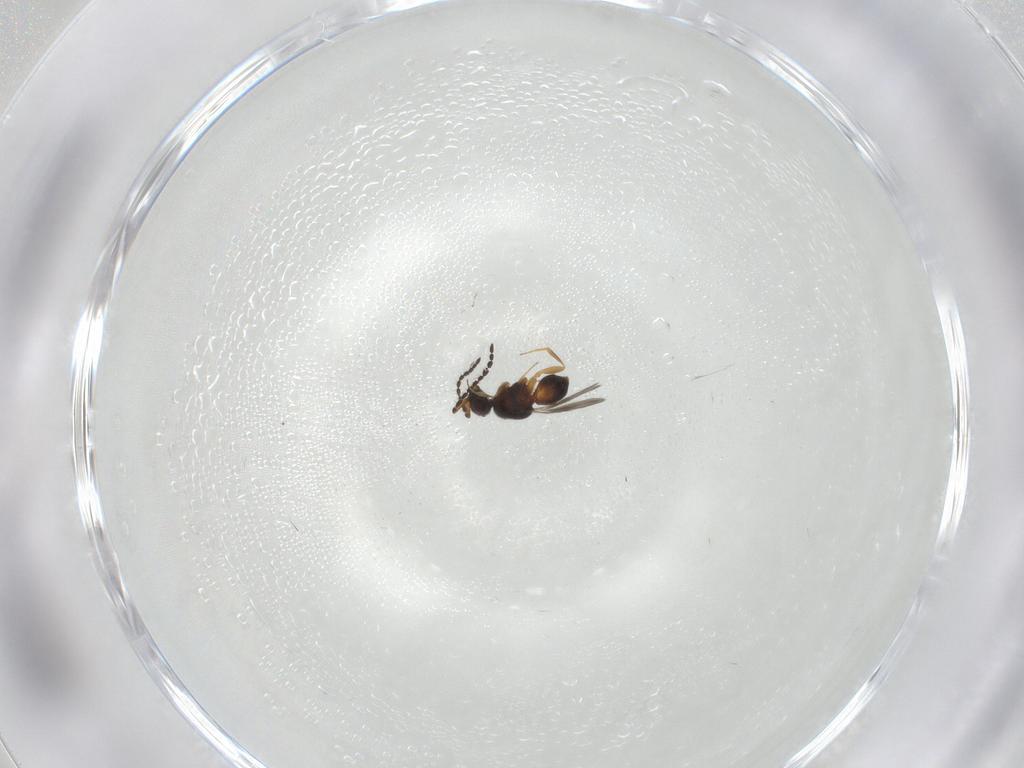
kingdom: Animalia
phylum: Arthropoda
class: Insecta
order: Hymenoptera
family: Ceraphronidae
